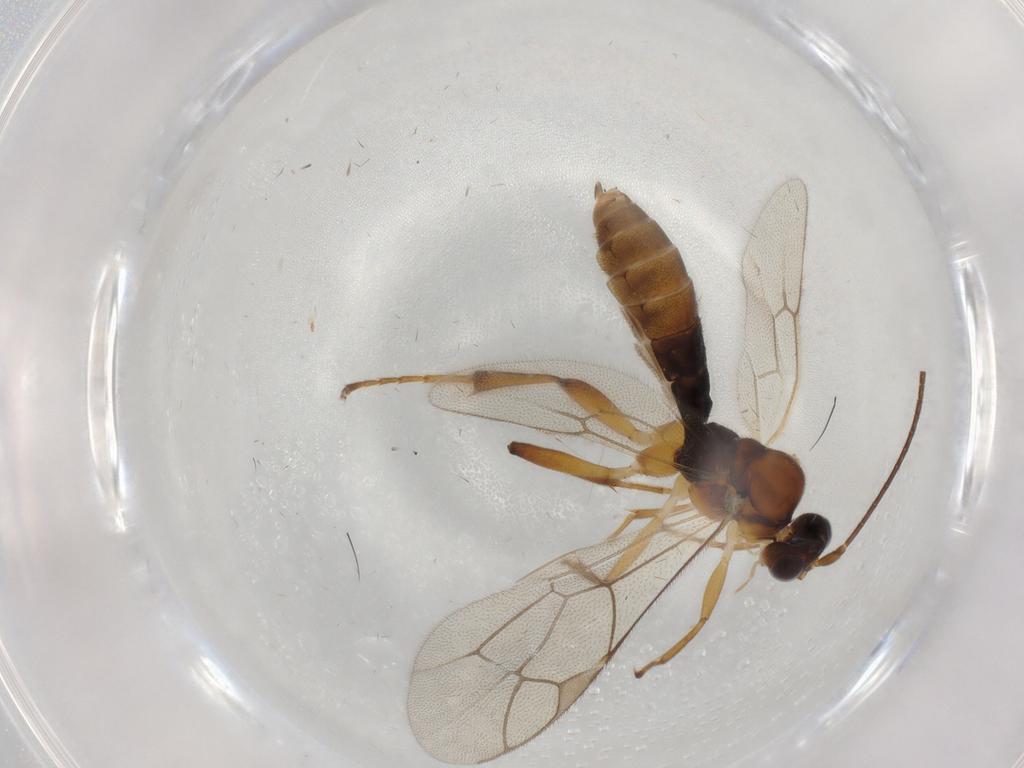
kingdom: Animalia
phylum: Arthropoda
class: Insecta
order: Hymenoptera
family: Ichneumonidae
